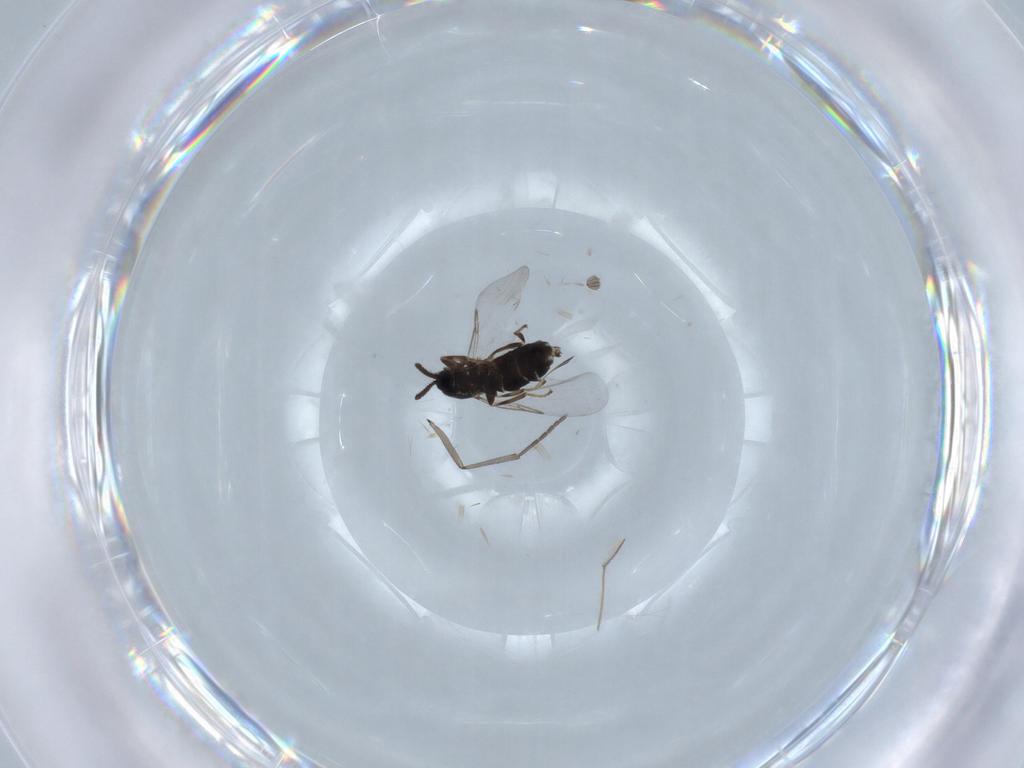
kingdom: Animalia
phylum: Arthropoda
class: Insecta
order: Diptera
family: Scatopsidae
